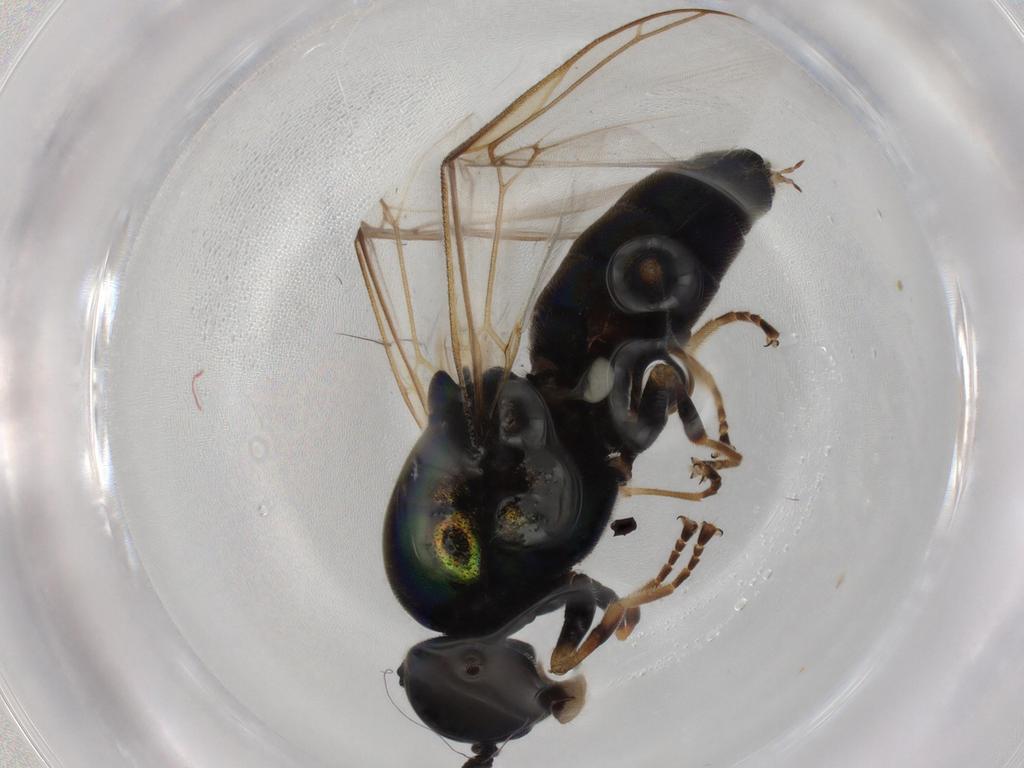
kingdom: Animalia
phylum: Arthropoda
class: Insecta
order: Diptera
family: Stratiomyidae
